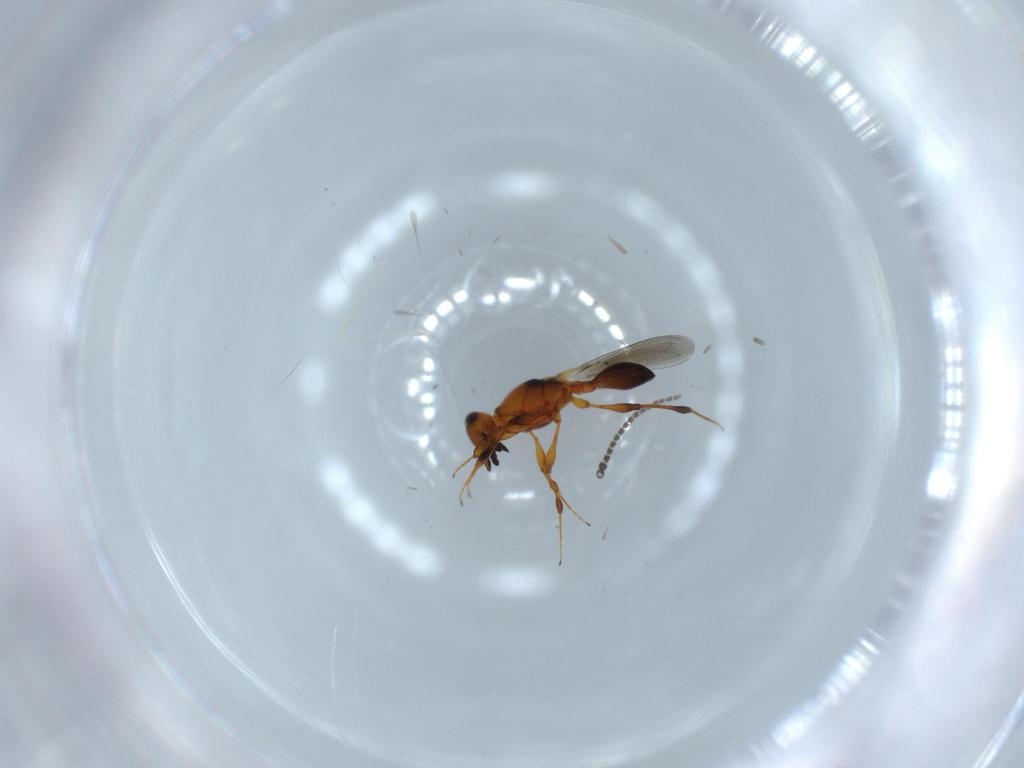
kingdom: Animalia
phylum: Arthropoda
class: Insecta
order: Hymenoptera
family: Platygastridae
